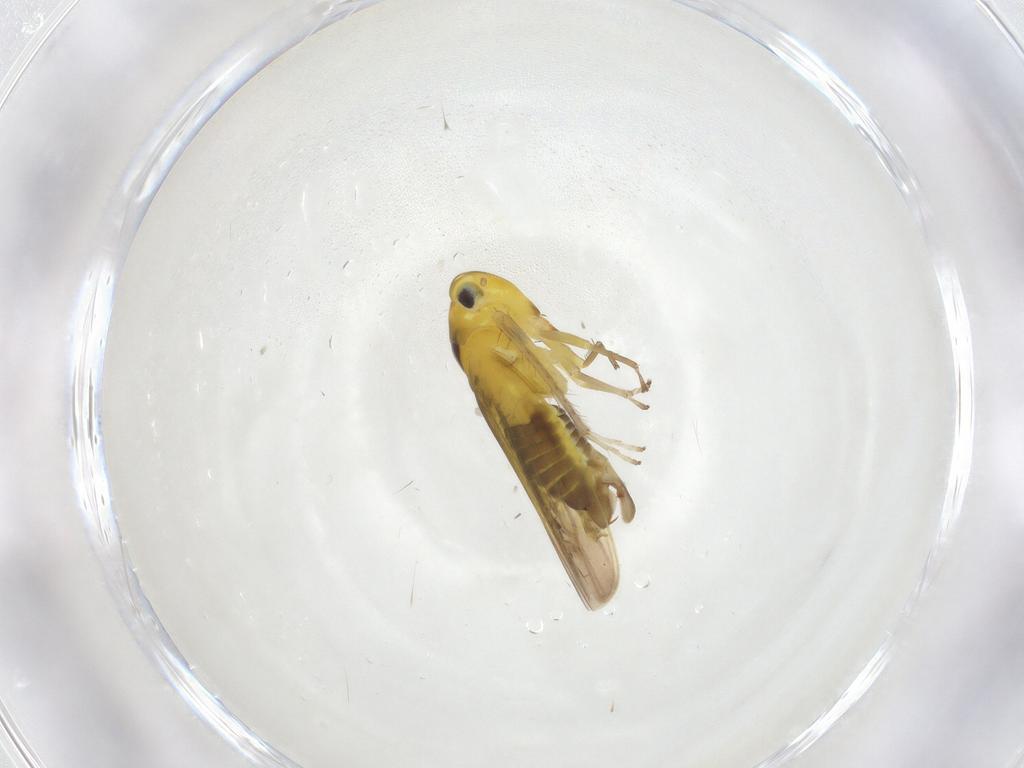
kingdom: Animalia
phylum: Arthropoda
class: Insecta
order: Hemiptera
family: Cicadellidae
